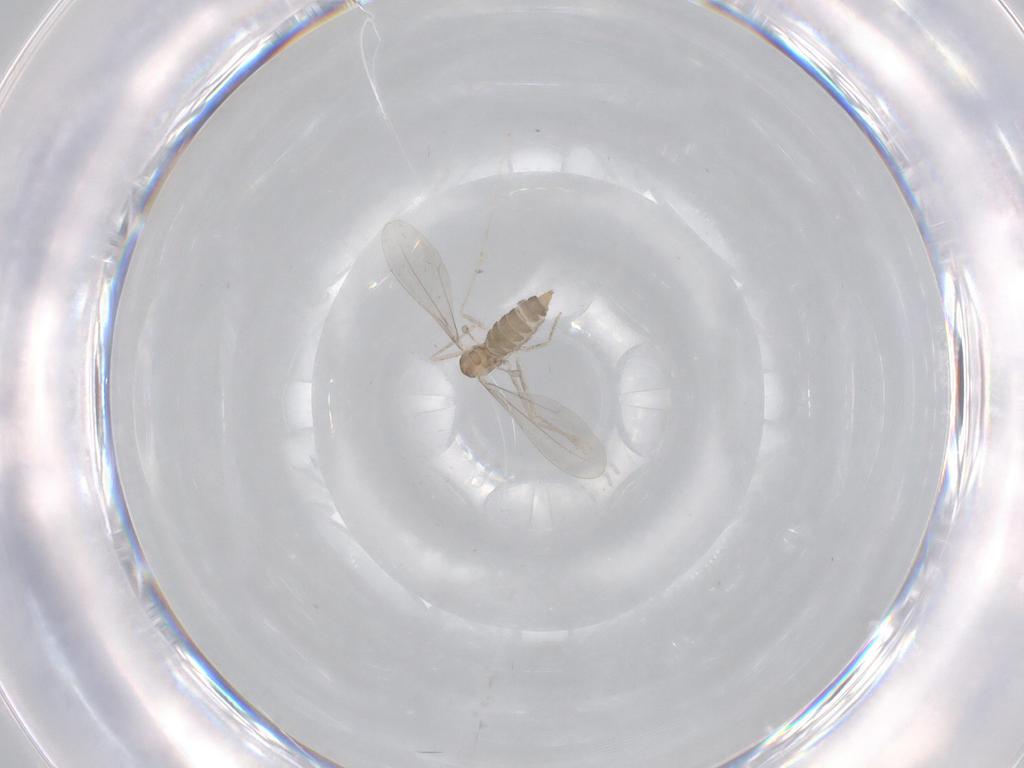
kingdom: Animalia
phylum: Arthropoda
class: Insecta
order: Diptera
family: Cecidomyiidae
